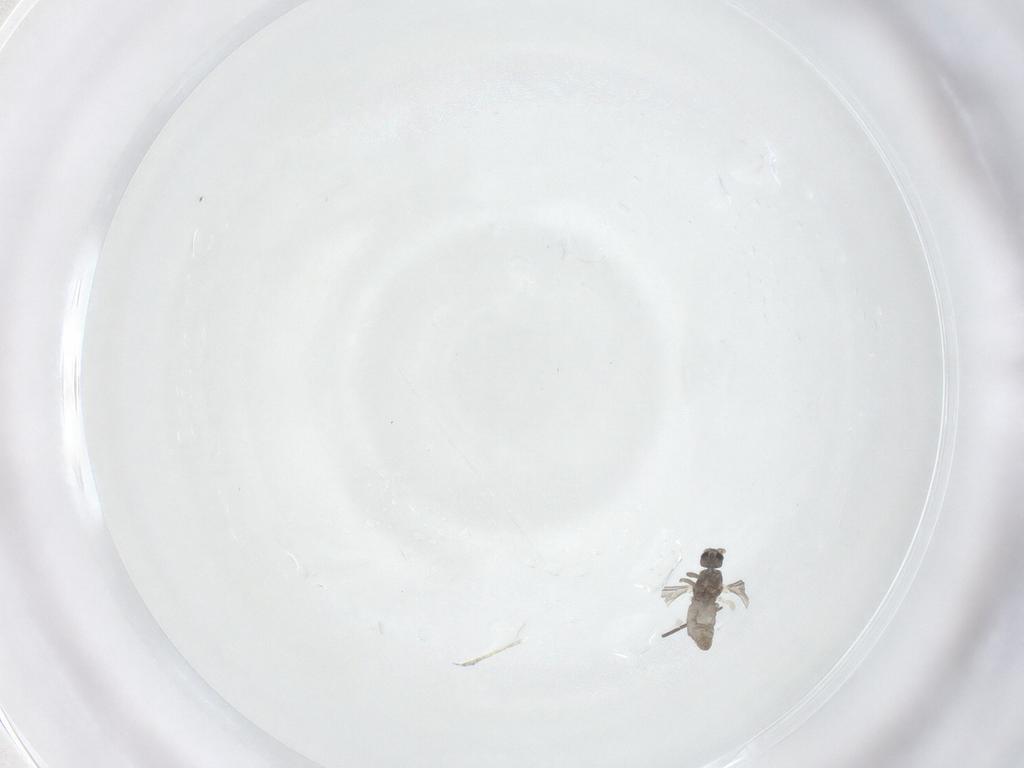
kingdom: Animalia
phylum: Arthropoda
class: Insecta
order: Diptera
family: Cecidomyiidae
